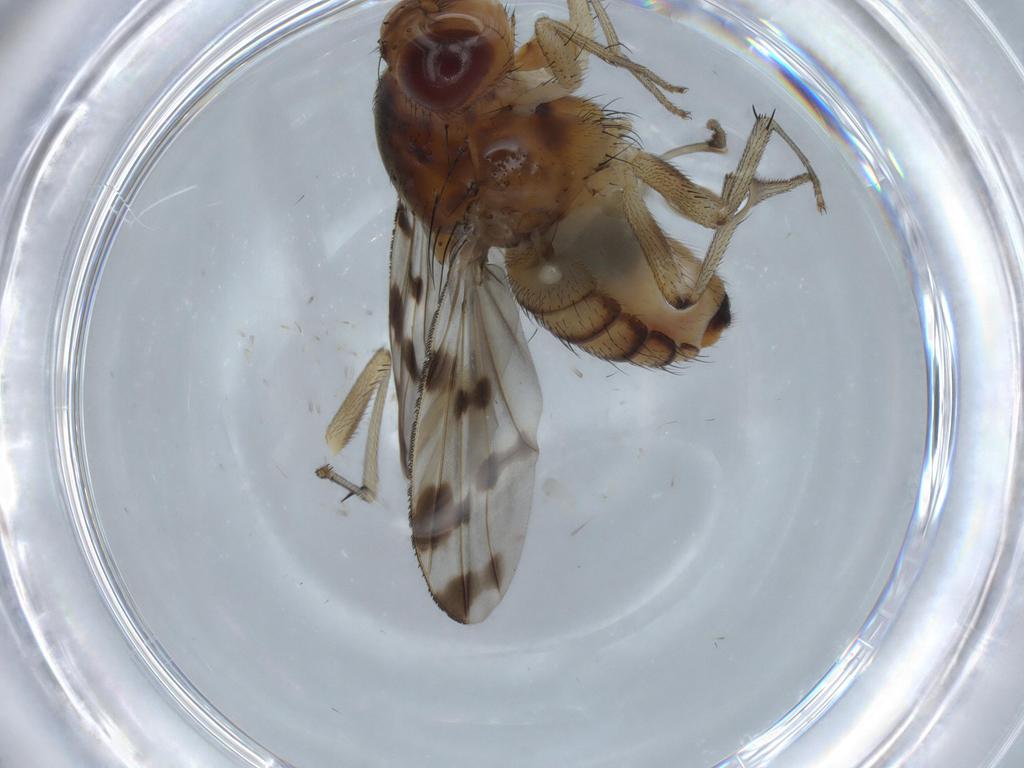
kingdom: Animalia
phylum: Arthropoda
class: Insecta
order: Diptera
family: Lauxaniidae
